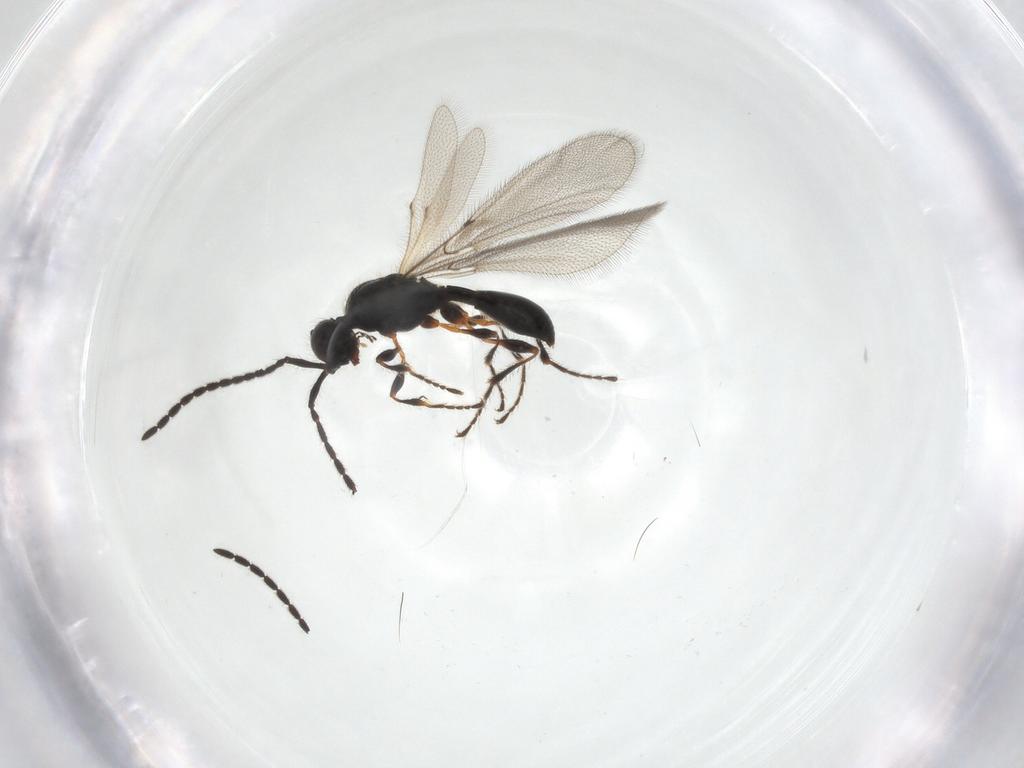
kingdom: Animalia
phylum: Arthropoda
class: Insecta
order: Hymenoptera
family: Diapriidae
